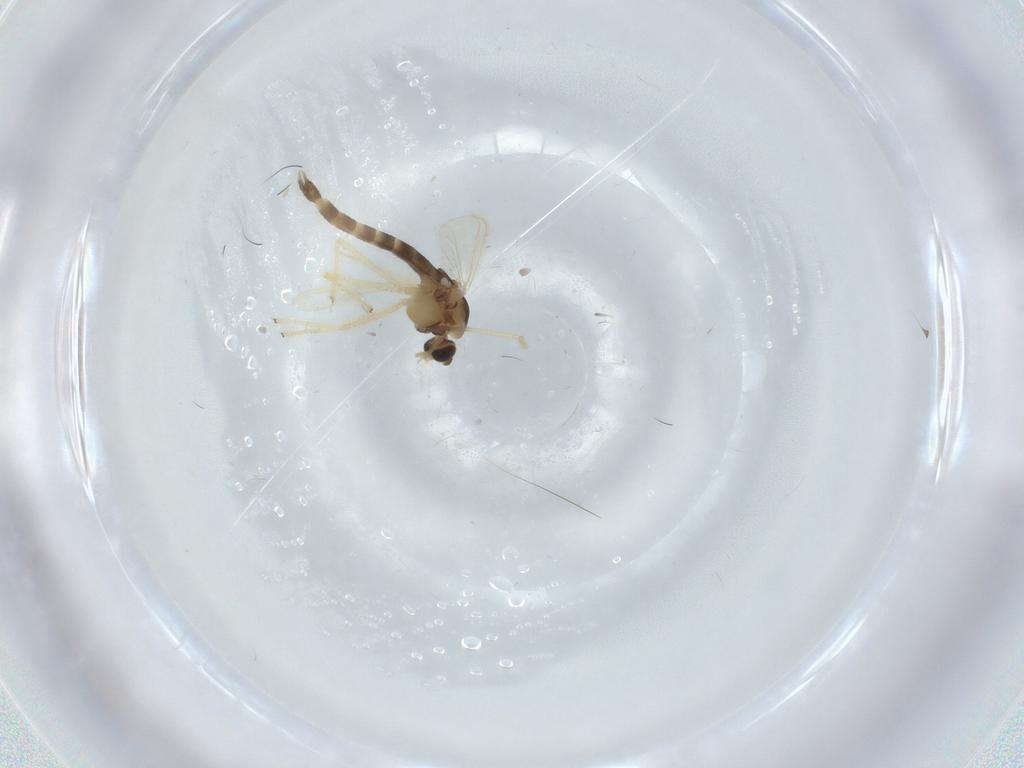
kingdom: Animalia
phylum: Arthropoda
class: Insecta
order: Diptera
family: Chironomidae
